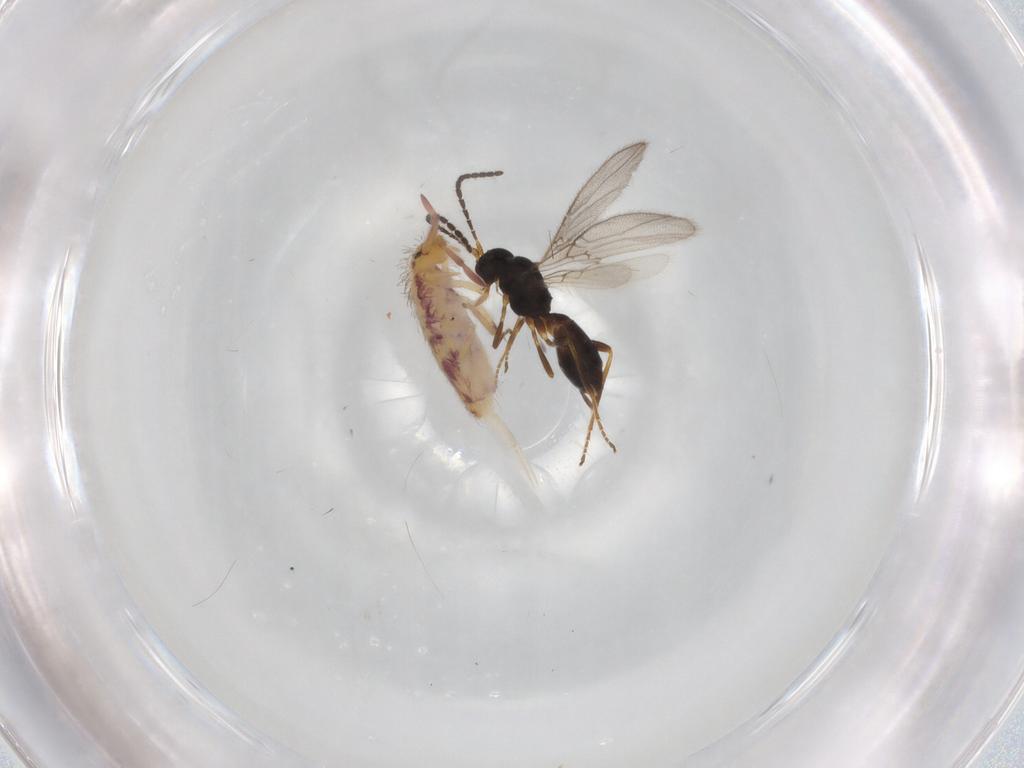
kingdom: Animalia
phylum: Arthropoda
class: Insecta
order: Hymenoptera
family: Braconidae
